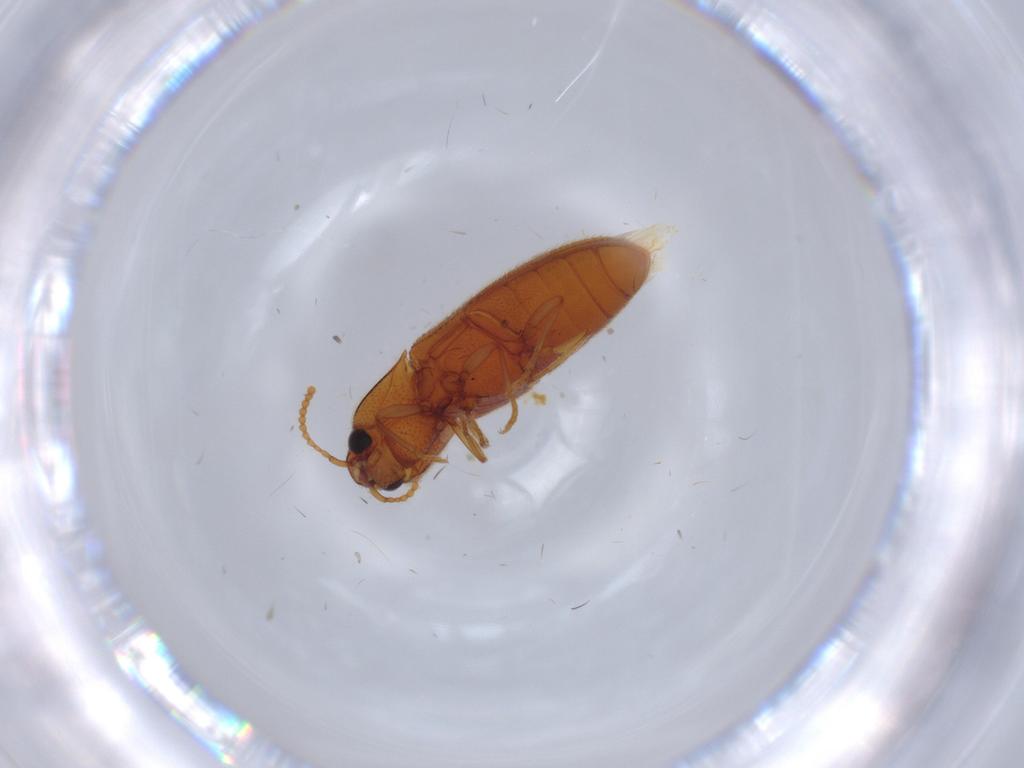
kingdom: Animalia
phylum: Arthropoda
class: Insecta
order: Coleoptera
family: Elateridae
